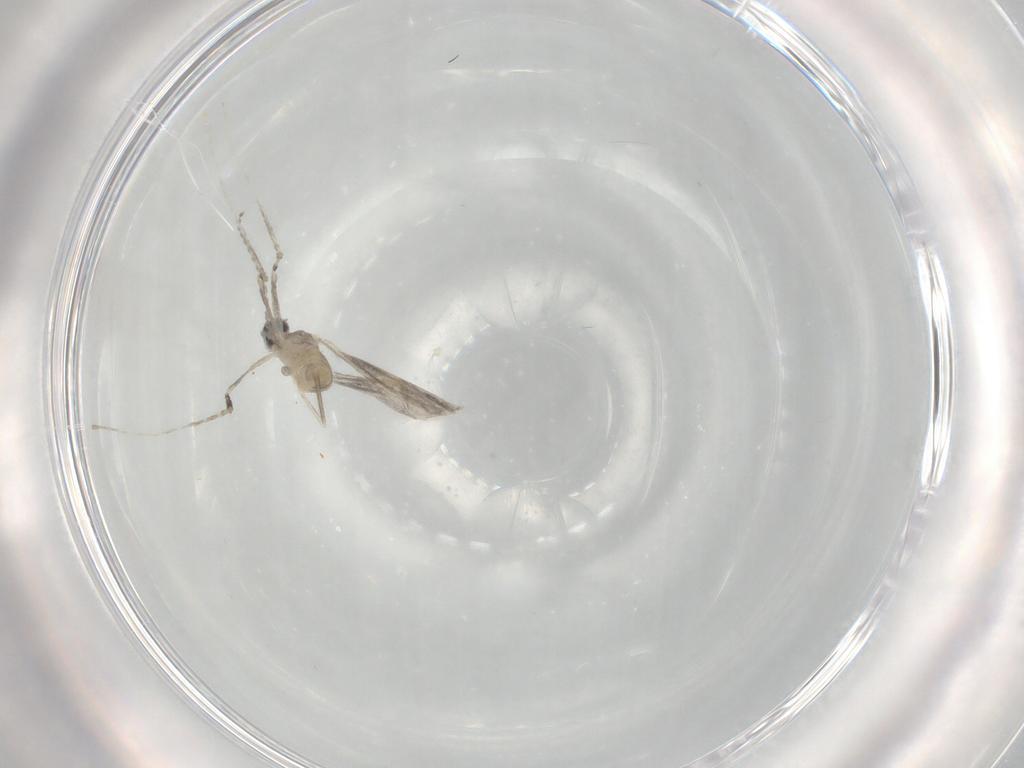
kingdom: Animalia
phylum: Arthropoda
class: Insecta
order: Diptera
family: Cecidomyiidae
